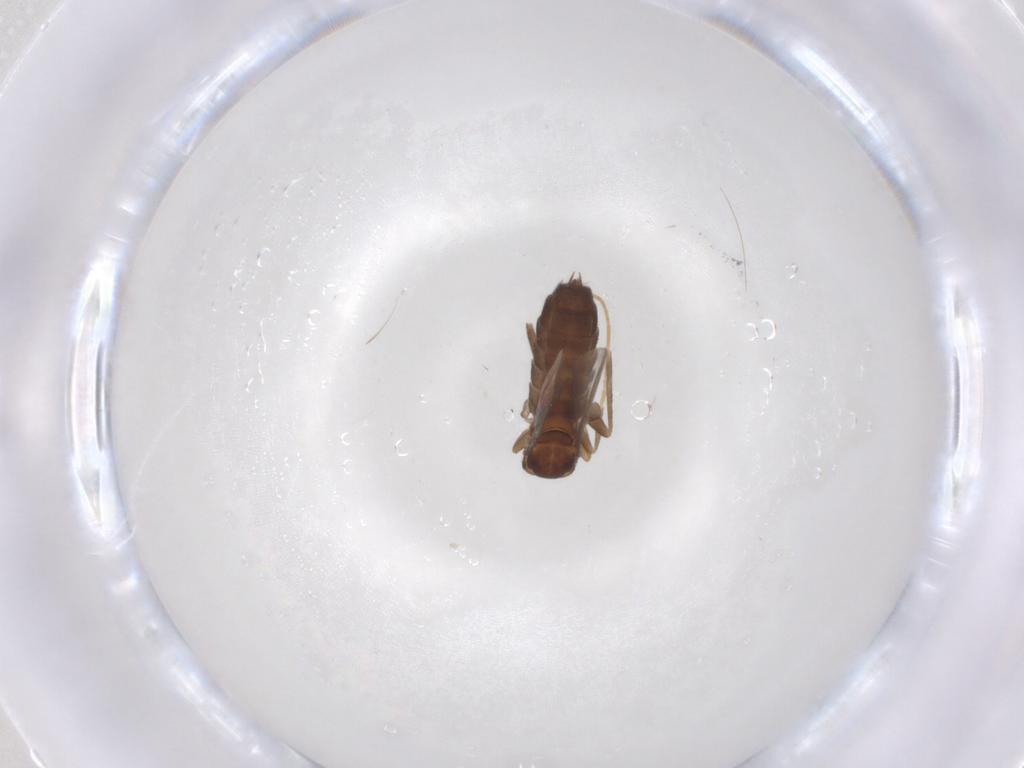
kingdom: Animalia
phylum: Arthropoda
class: Insecta
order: Diptera
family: Scatopsidae
